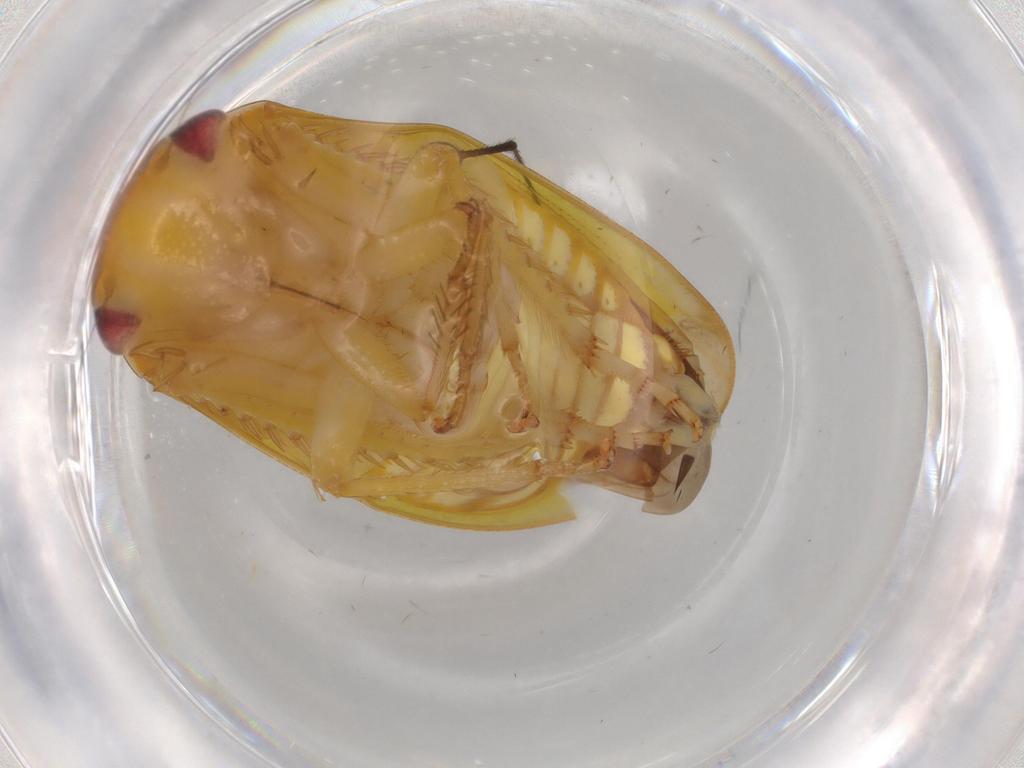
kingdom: Animalia
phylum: Arthropoda
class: Insecta
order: Hemiptera
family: Cicadellidae
